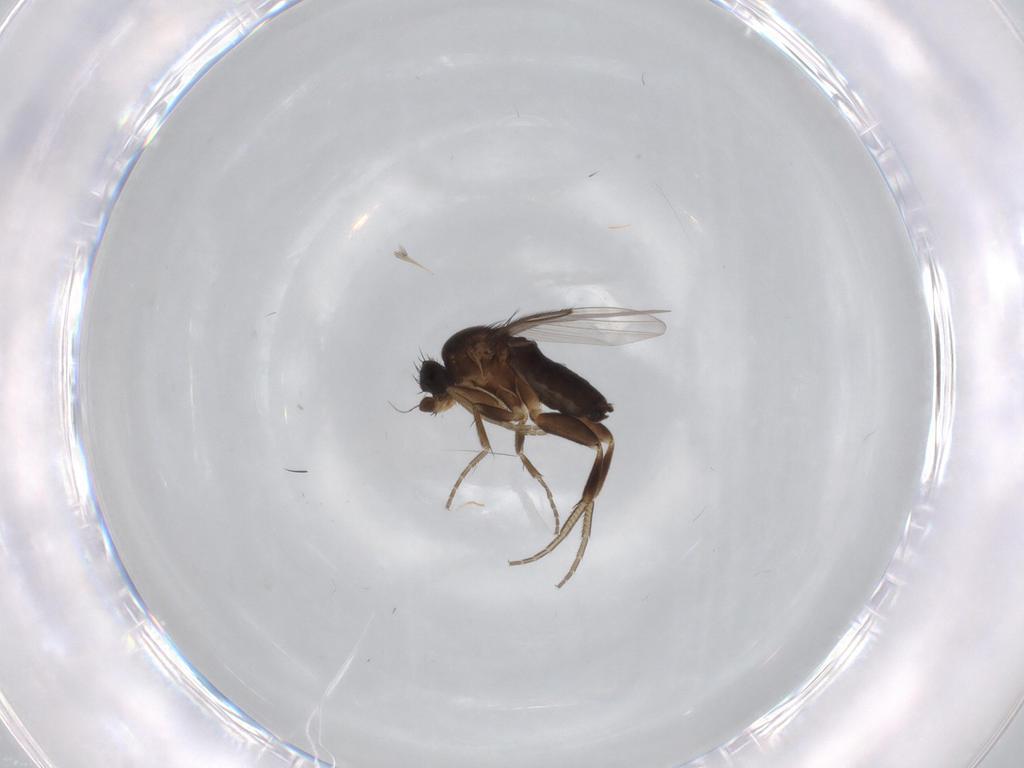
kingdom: Animalia
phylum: Arthropoda
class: Insecta
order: Diptera
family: Phoridae
